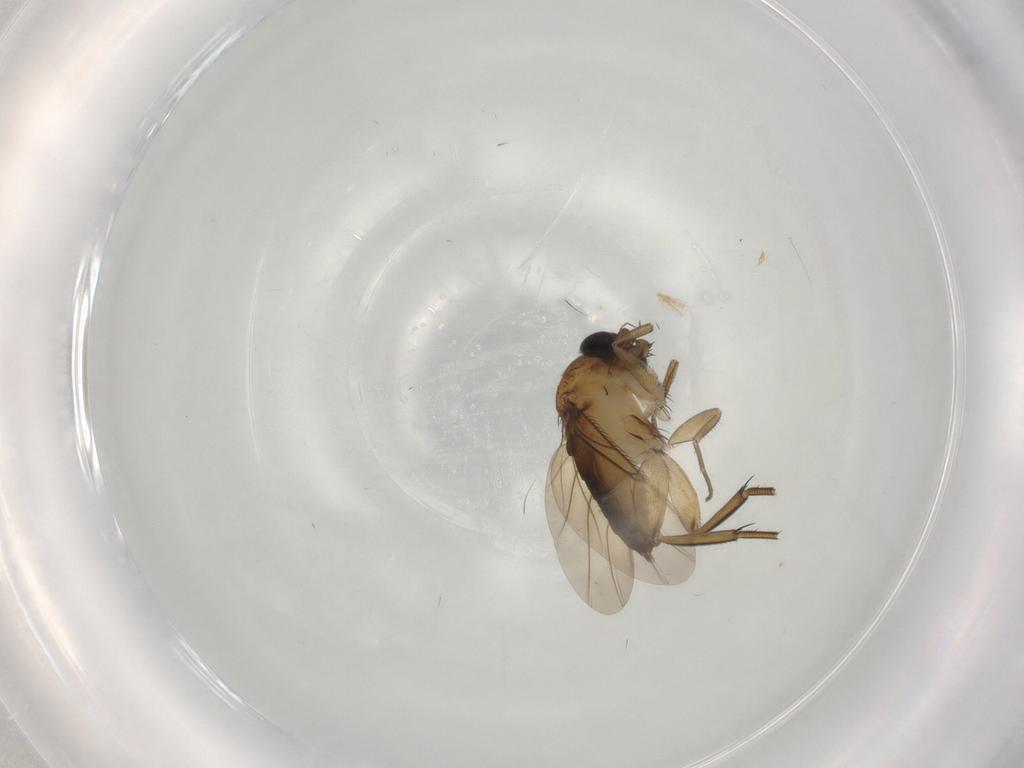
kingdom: Animalia
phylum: Arthropoda
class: Insecta
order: Diptera
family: Phoridae
